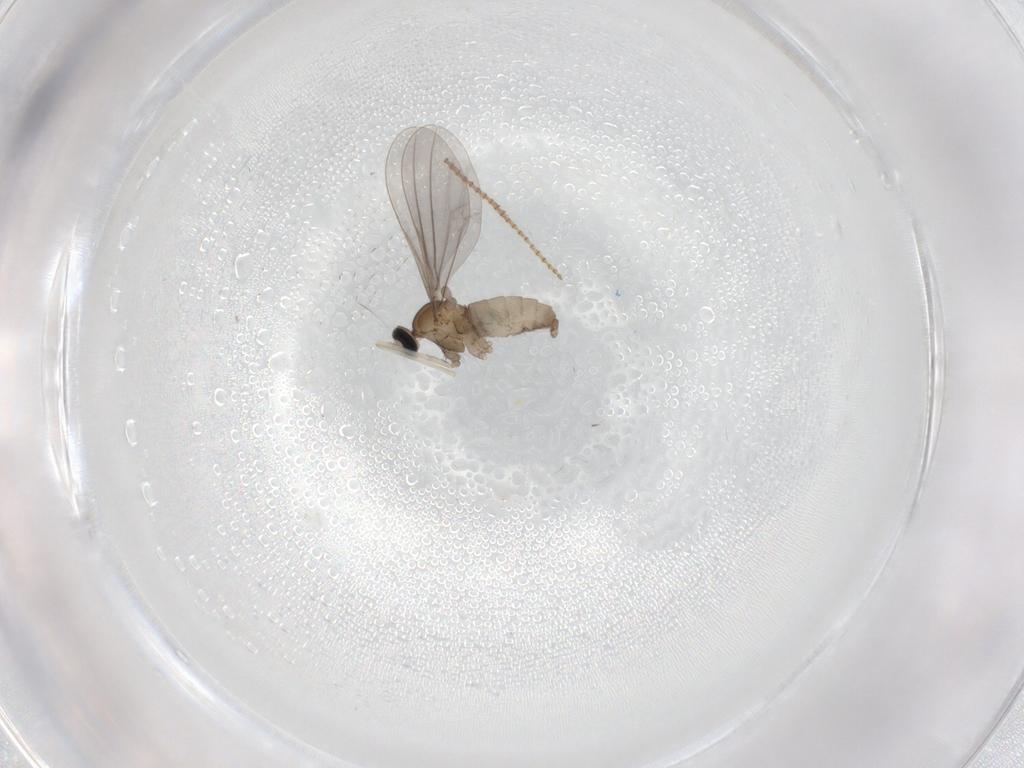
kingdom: Animalia
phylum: Arthropoda
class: Insecta
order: Diptera
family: Cecidomyiidae
